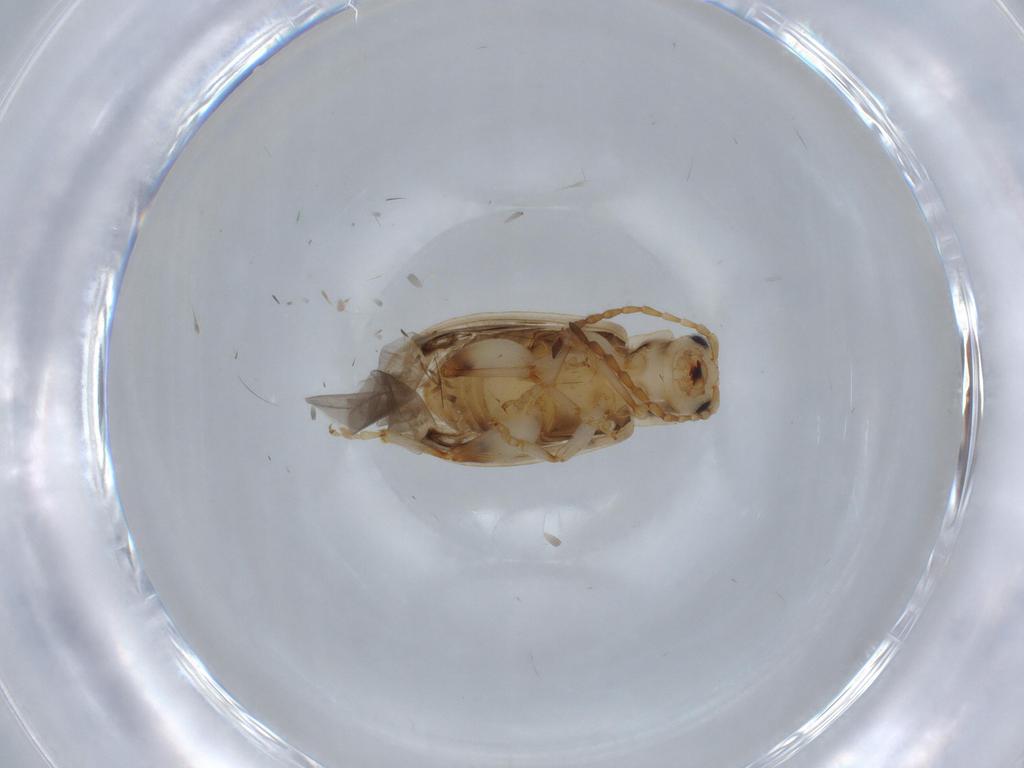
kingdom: Animalia
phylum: Arthropoda
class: Insecta
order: Coleoptera
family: Chrysomelidae
